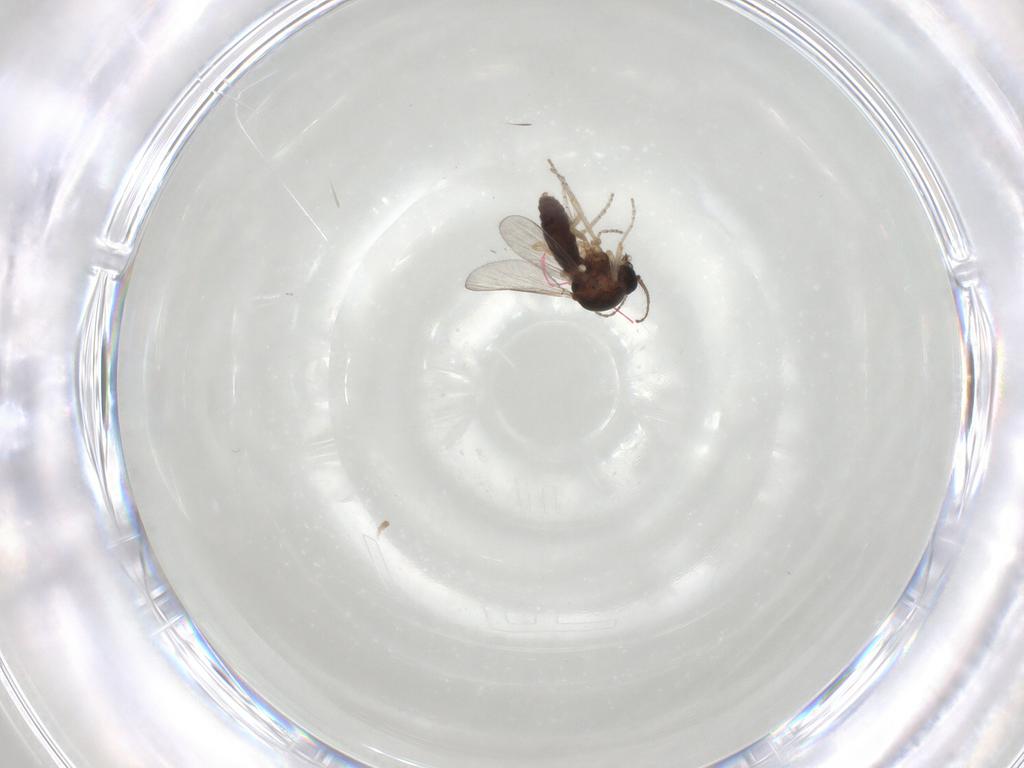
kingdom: Animalia
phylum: Arthropoda
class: Insecta
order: Diptera
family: Ceratopogonidae
